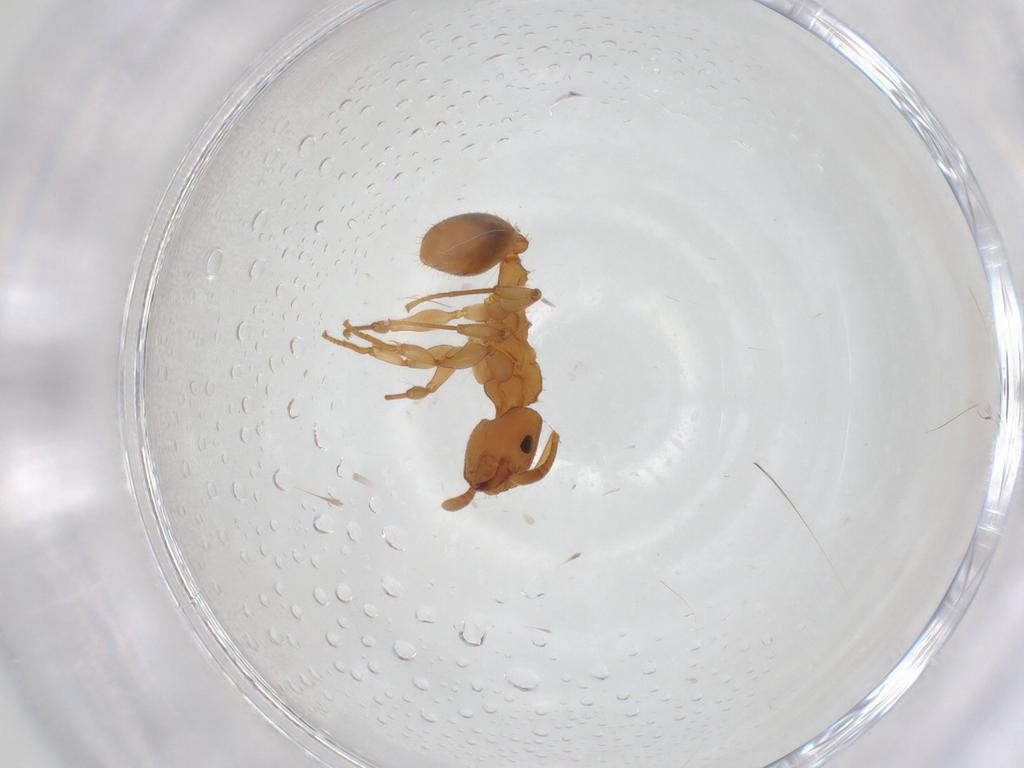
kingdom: Animalia
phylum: Arthropoda
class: Insecta
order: Hymenoptera
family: Formicidae
